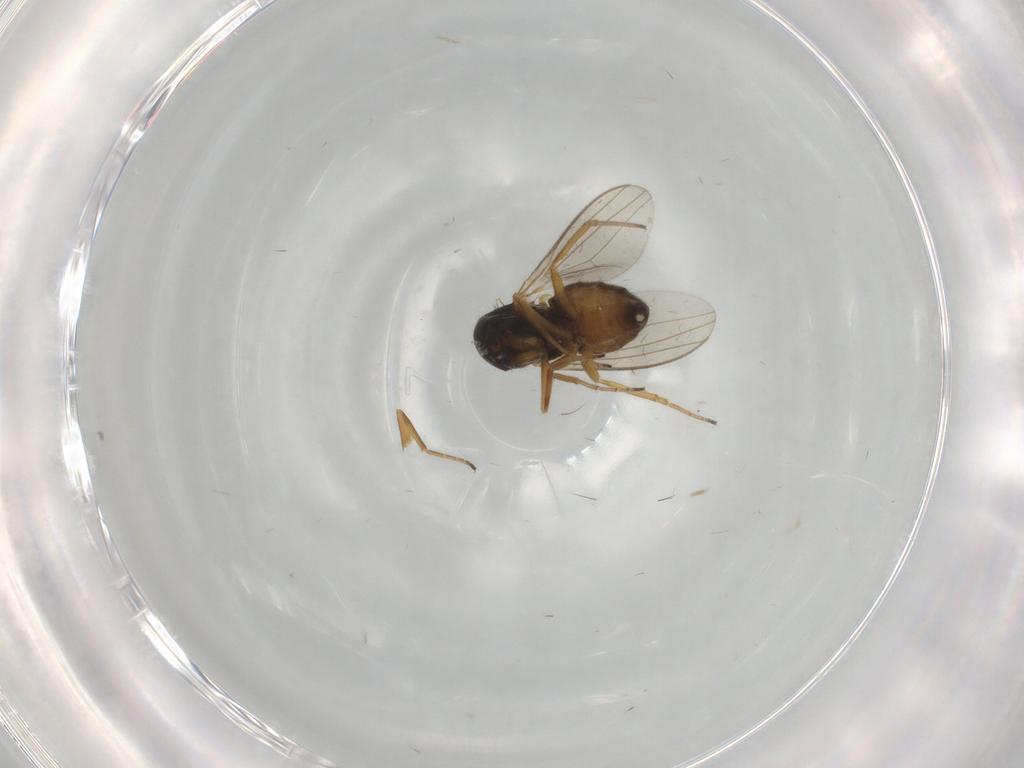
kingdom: Animalia
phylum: Arthropoda
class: Insecta
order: Diptera
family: Dolichopodidae
